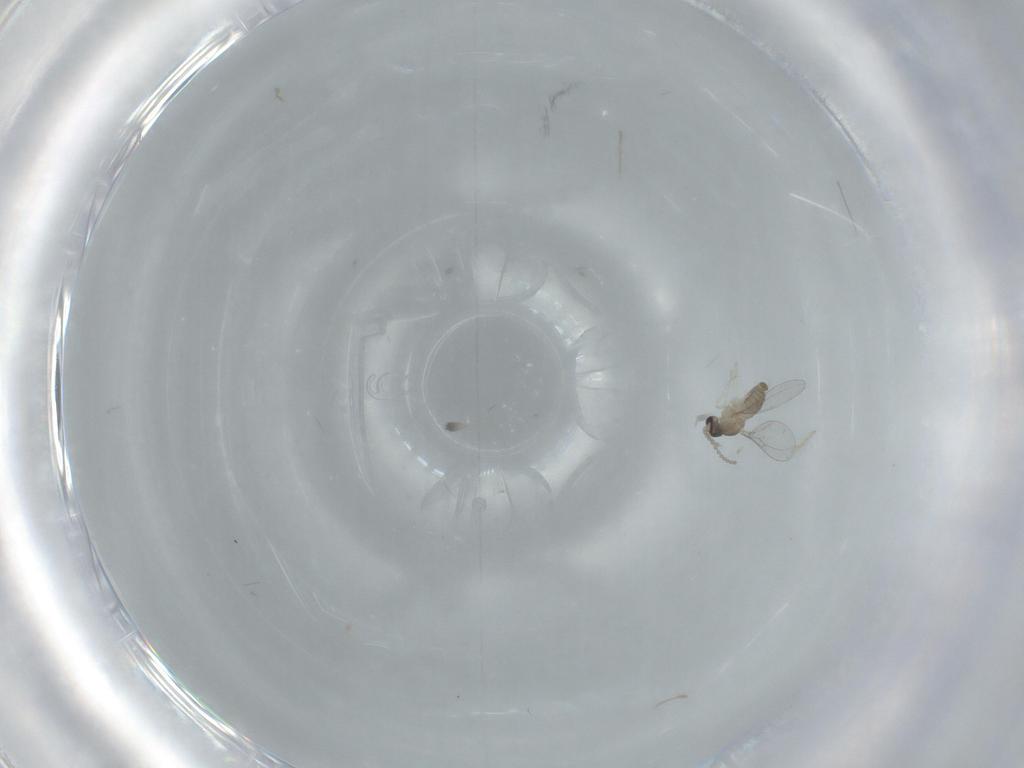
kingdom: Animalia
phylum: Arthropoda
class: Insecta
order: Diptera
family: Cecidomyiidae
